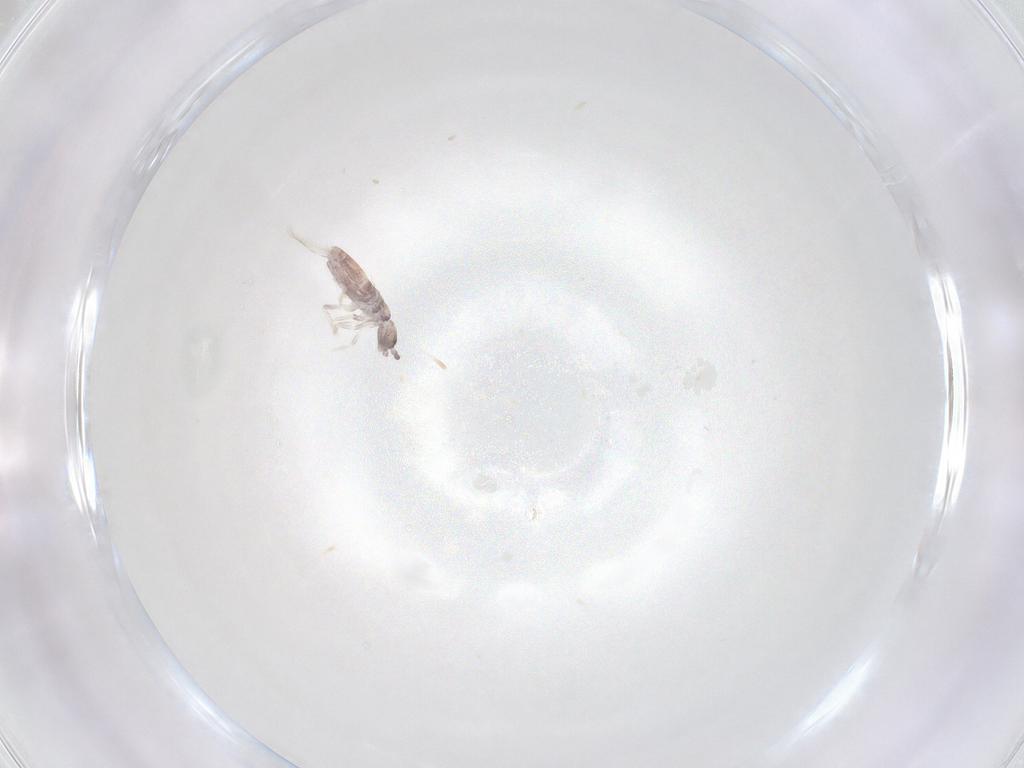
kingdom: Animalia
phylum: Arthropoda
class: Collembola
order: Poduromorpha
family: Hypogastruridae
